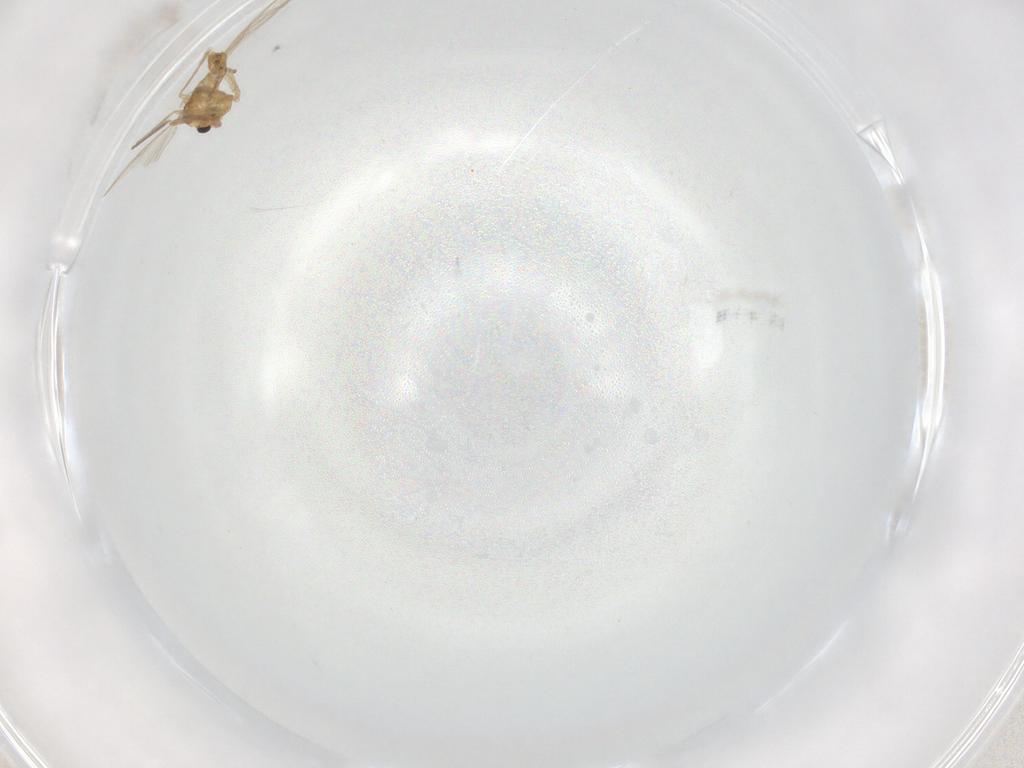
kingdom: Animalia
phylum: Arthropoda
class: Insecta
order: Diptera
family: Chironomidae
